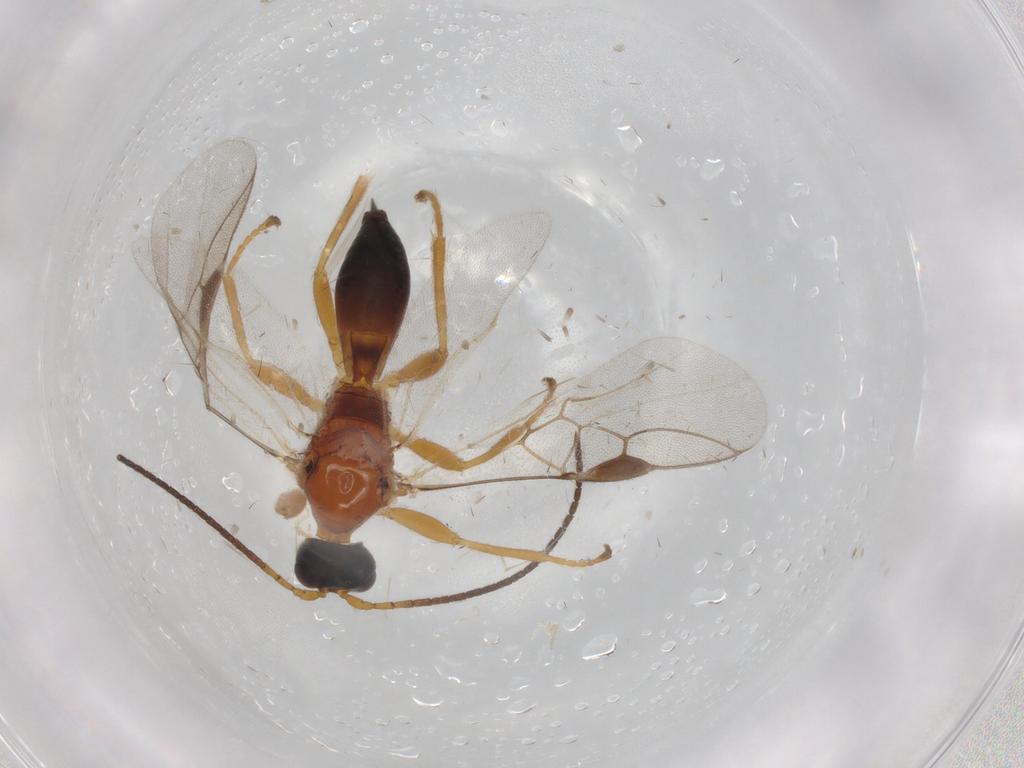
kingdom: Animalia
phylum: Arthropoda
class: Insecta
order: Hymenoptera
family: Braconidae
